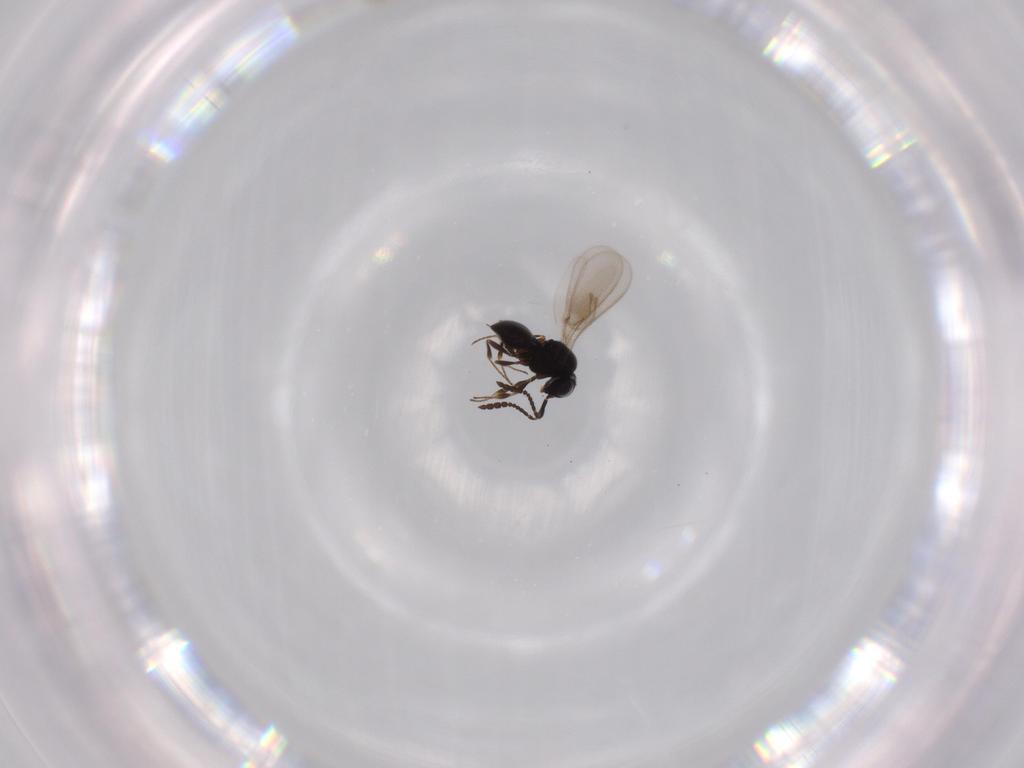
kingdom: Animalia
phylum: Arthropoda
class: Insecta
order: Hymenoptera
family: Scelionidae
